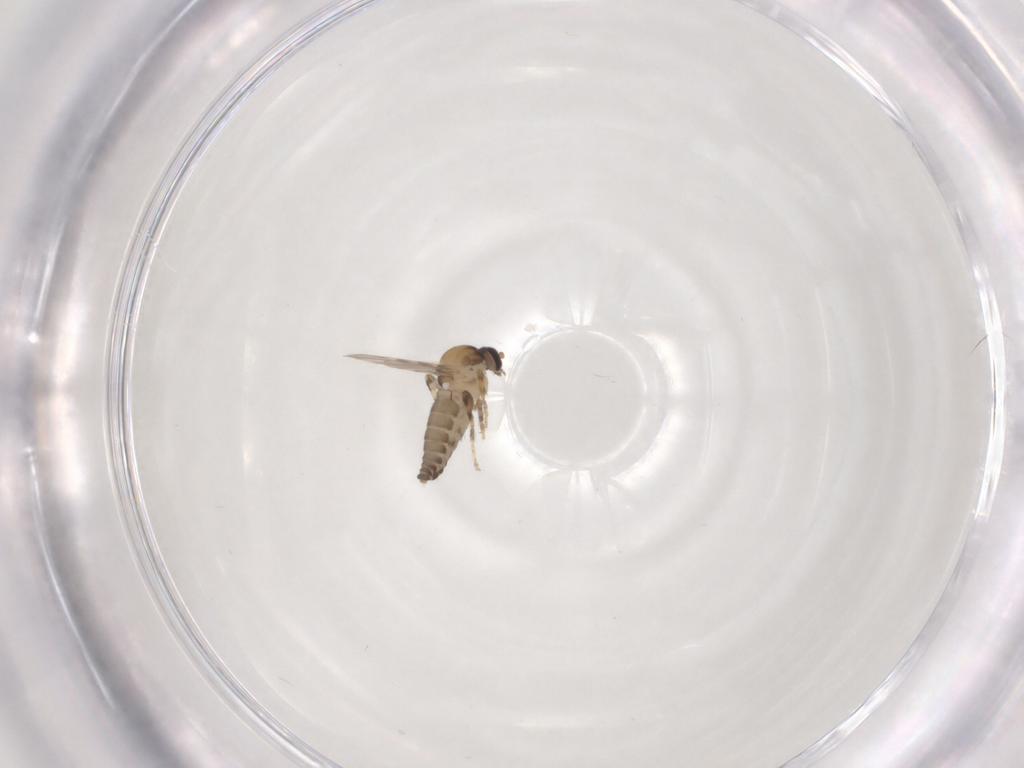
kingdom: Animalia
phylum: Arthropoda
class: Insecta
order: Diptera
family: Ceratopogonidae
